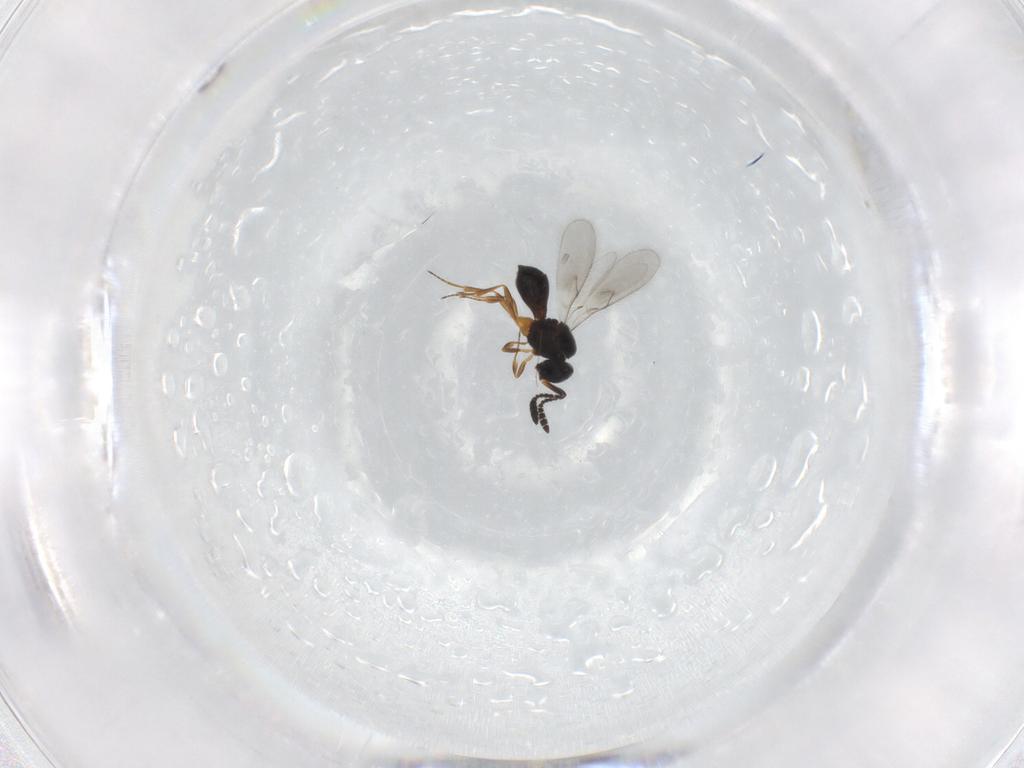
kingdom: Animalia
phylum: Arthropoda
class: Insecta
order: Hymenoptera
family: Scelionidae
